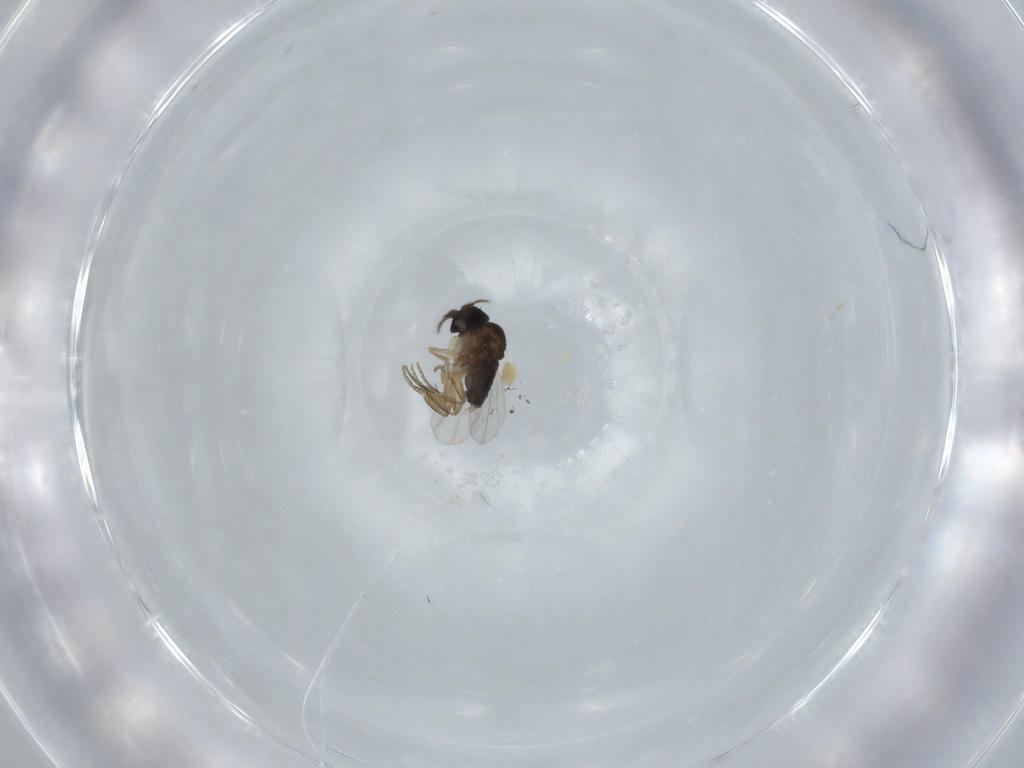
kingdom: Animalia
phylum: Arthropoda
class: Insecta
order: Diptera
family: Phoridae
